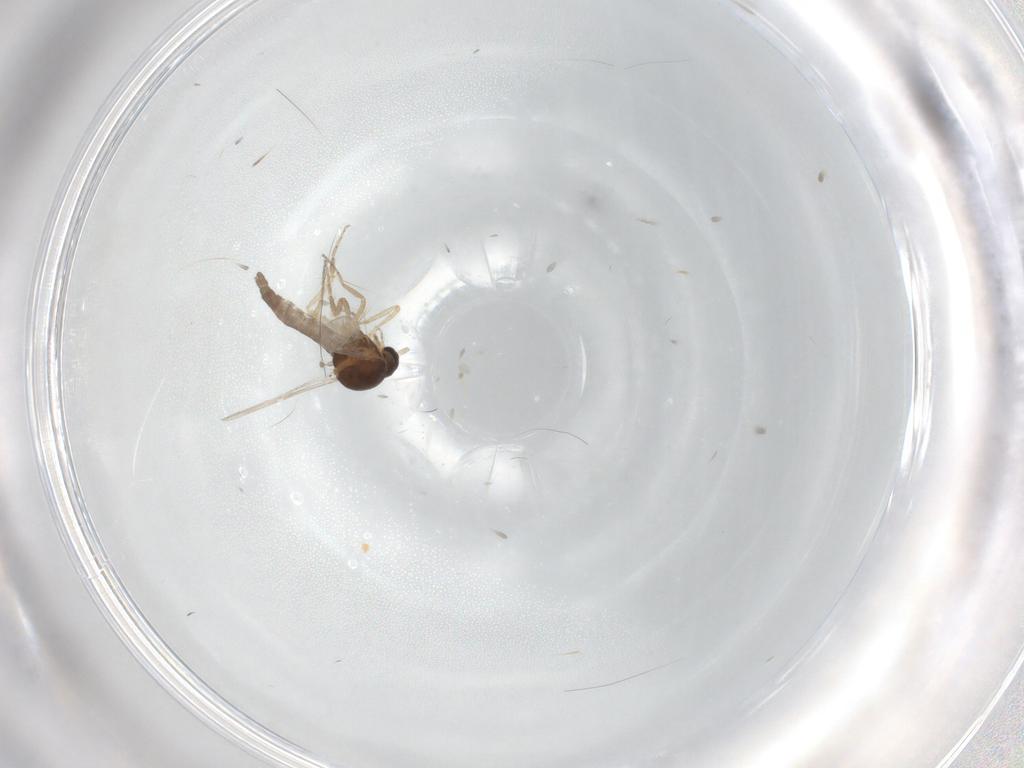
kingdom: Animalia
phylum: Arthropoda
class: Insecta
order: Diptera
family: Ceratopogonidae
